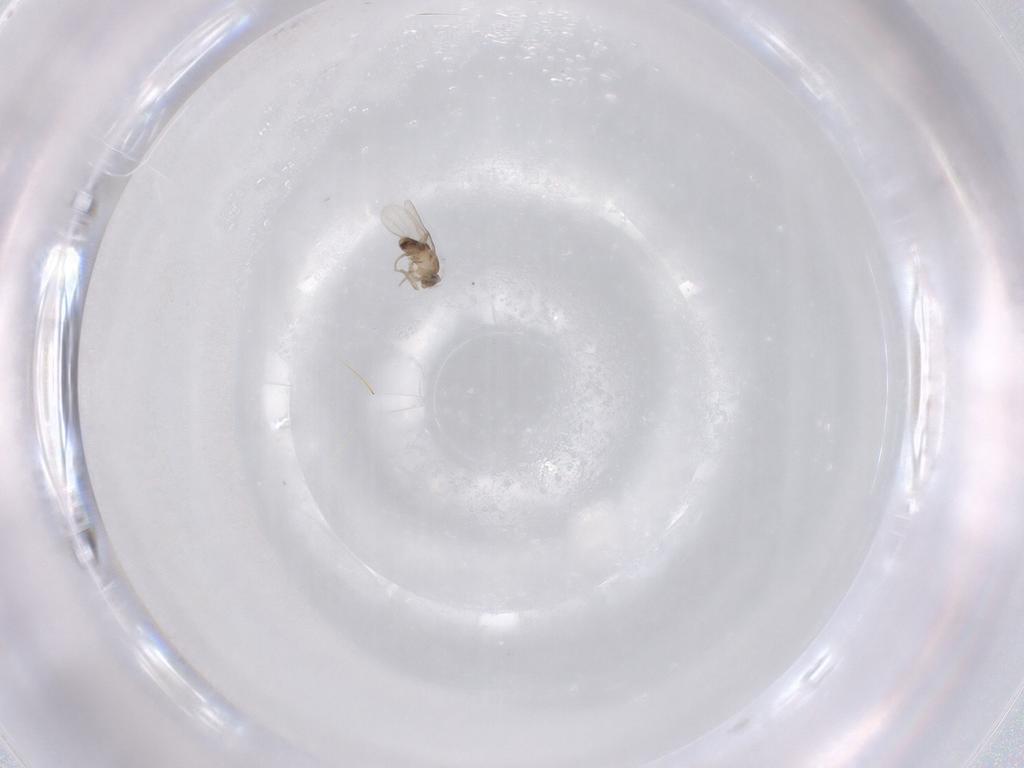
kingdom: Animalia
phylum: Arthropoda
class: Insecta
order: Diptera
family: Phoridae
